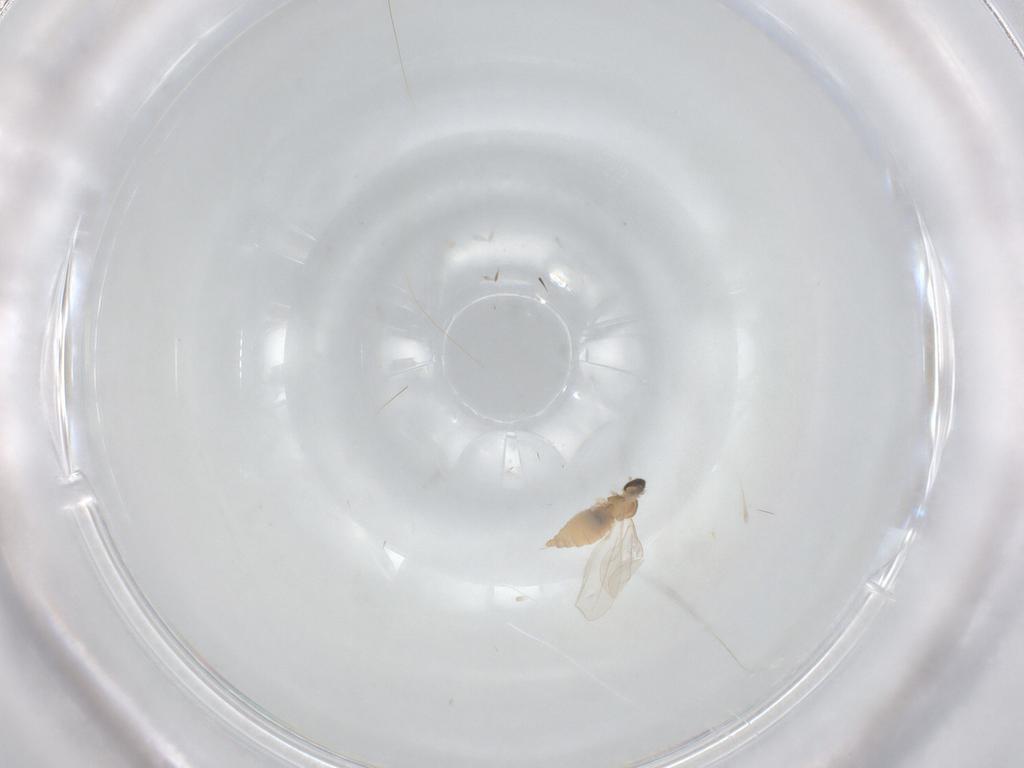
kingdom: Animalia
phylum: Arthropoda
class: Insecta
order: Diptera
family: Cecidomyiidae
